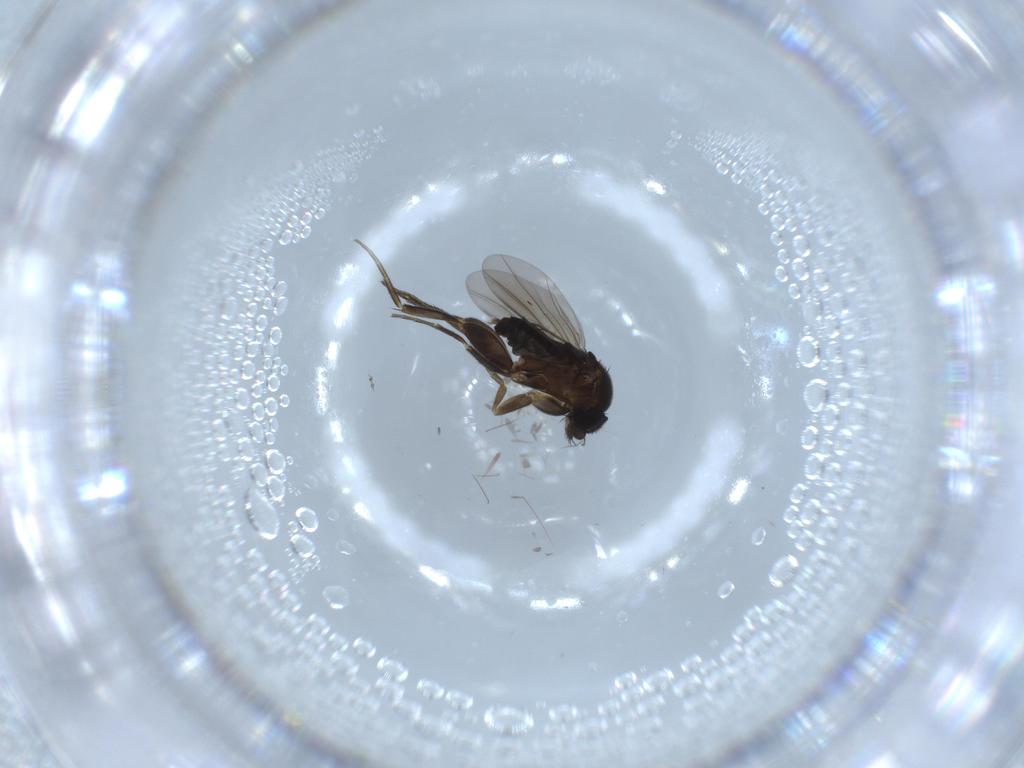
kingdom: Animalia
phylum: Arthropoda
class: Insecta
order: Diptera
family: Phoridae
